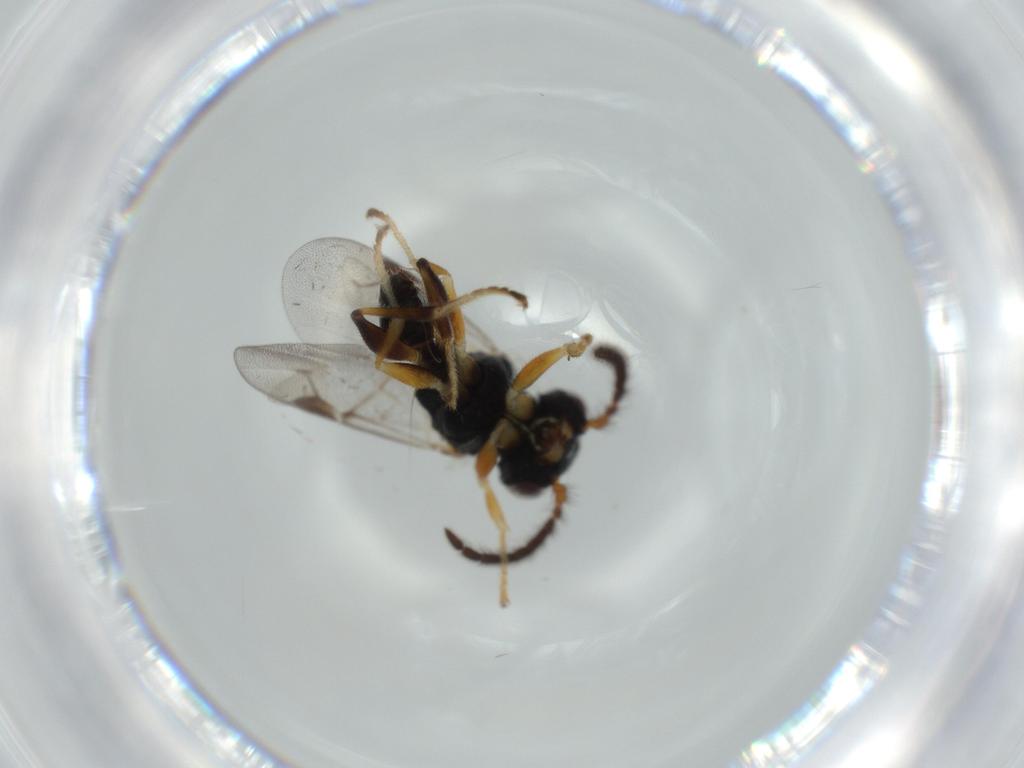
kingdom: Animalia
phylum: Arthropoda
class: Insecta
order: Hymenoptera
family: Dryinidae
